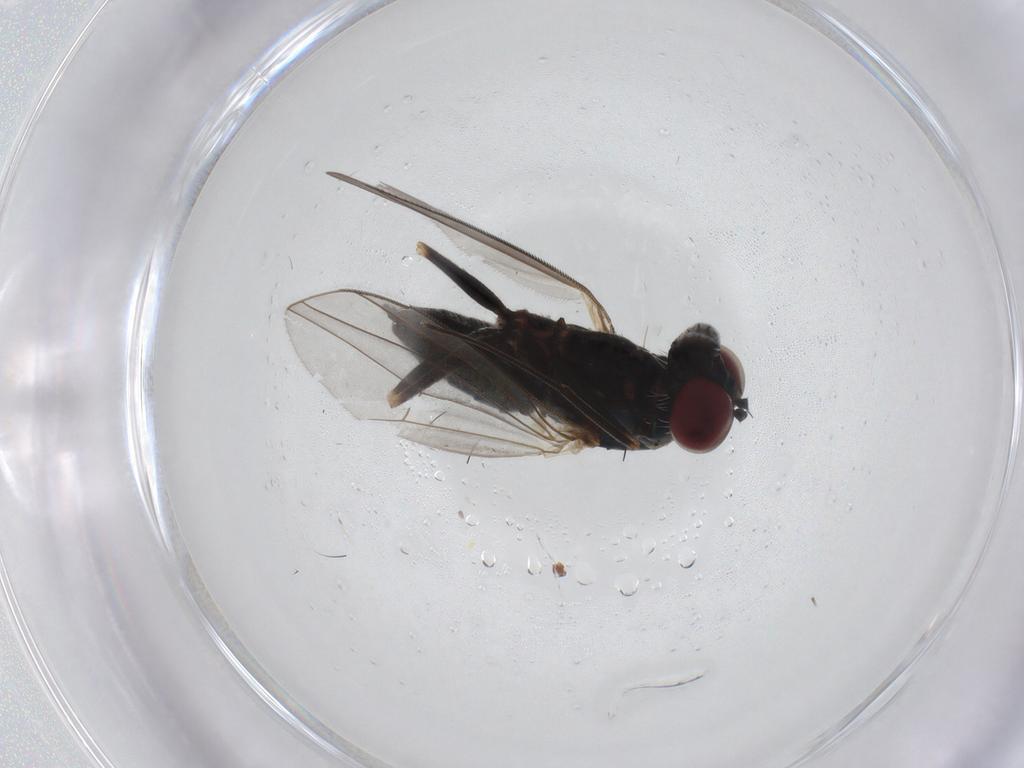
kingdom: Animalia
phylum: Arthropoda
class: Insecta
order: Diptera
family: Dolichopodidae
